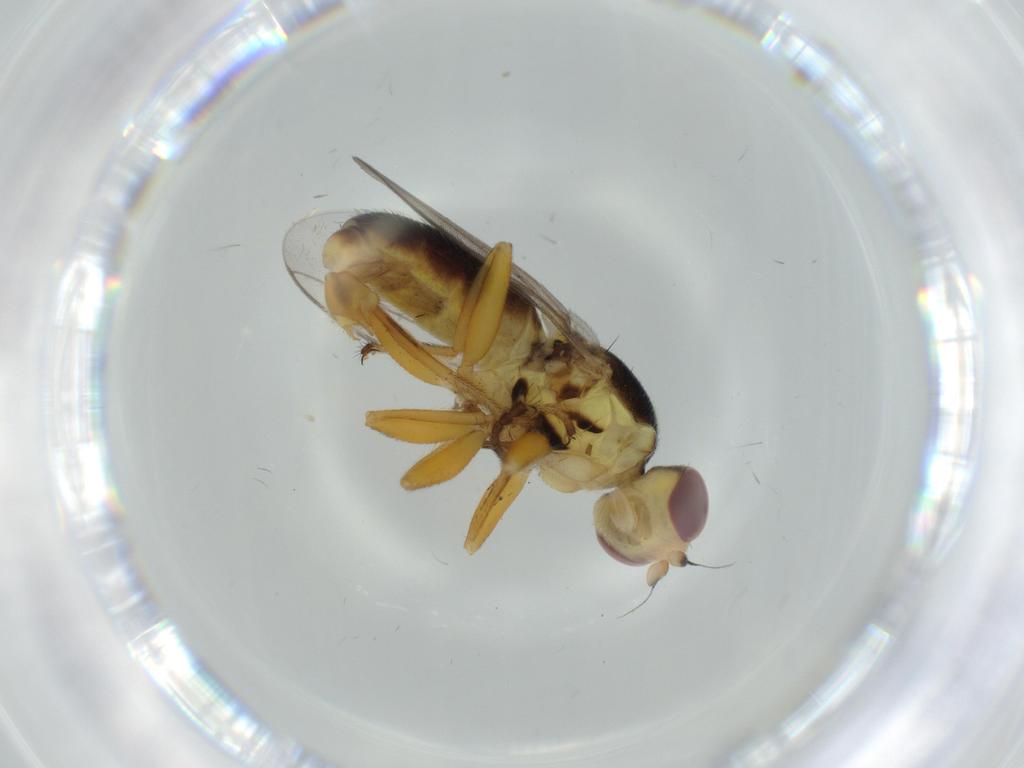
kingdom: Animalia
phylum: Arthropoda
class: Insecta
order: Diptera
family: Chloropidae
